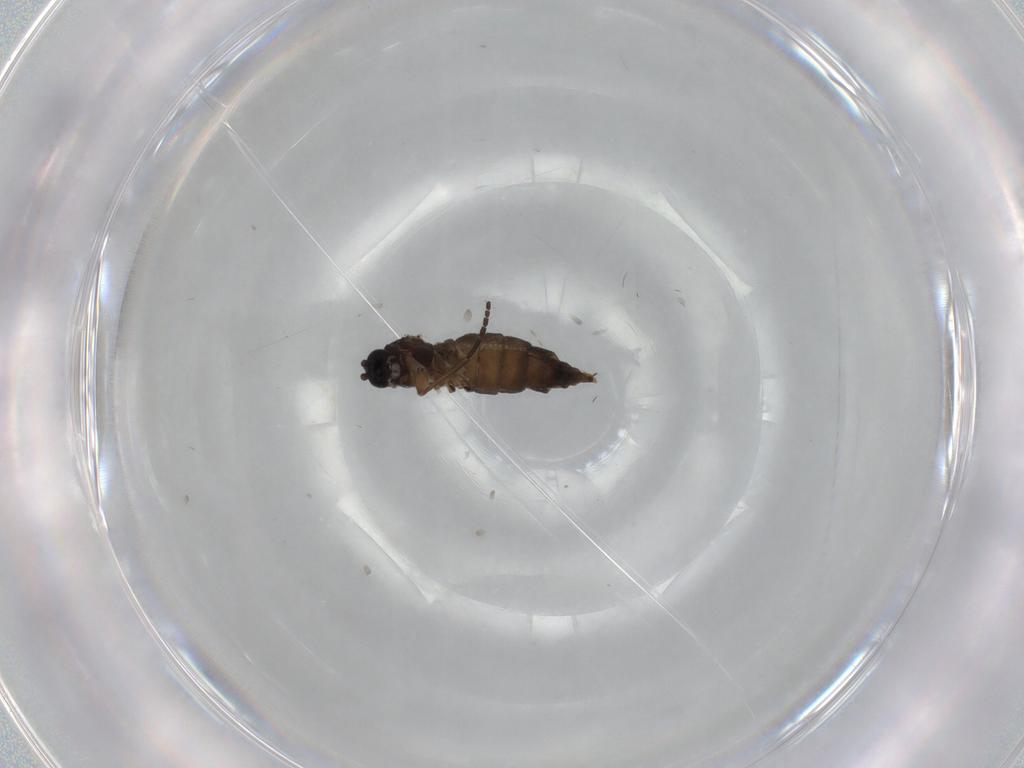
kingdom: Animalia
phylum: Arthropoda
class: Insecta
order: Diptera
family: Sciaridae
